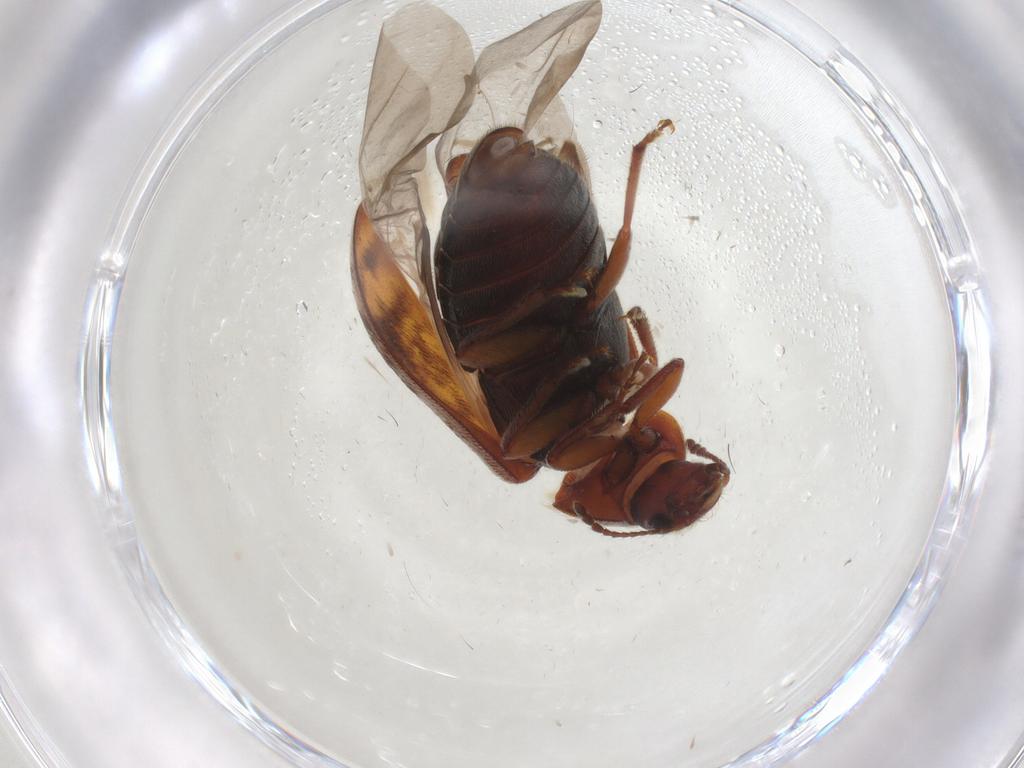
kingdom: Animalia
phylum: Arthropoda
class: Insecta
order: Coleoptera
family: Byturidae
